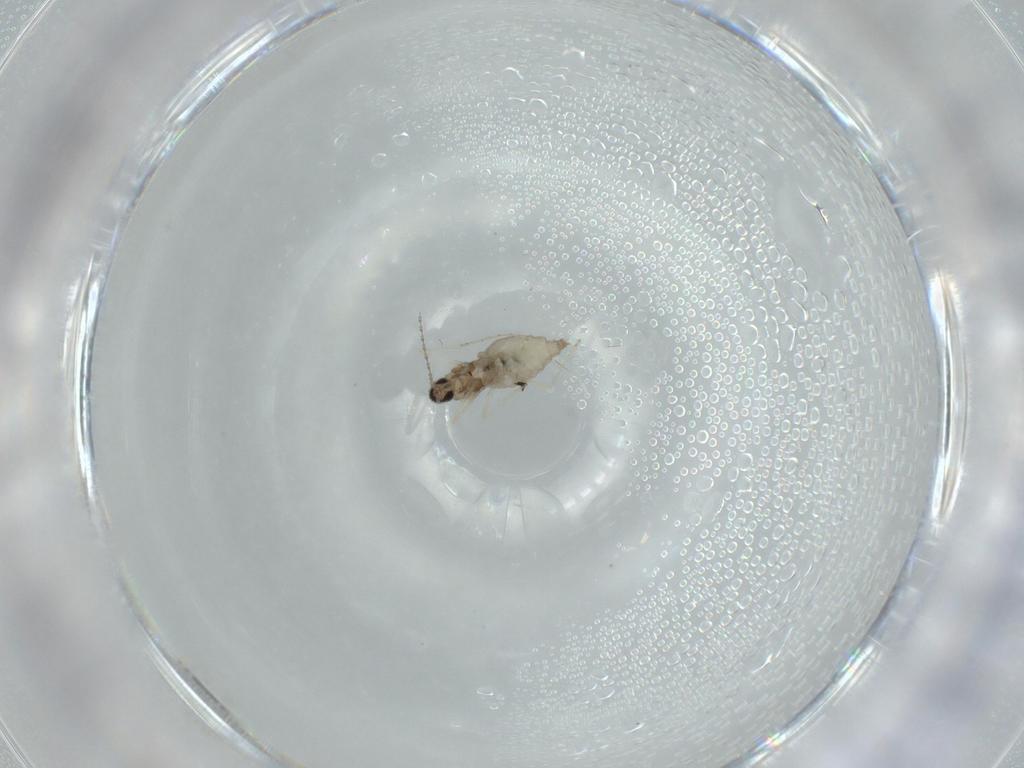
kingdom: Animalia
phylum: Arthropoda
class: Insecta
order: Diptera
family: Cecidomyiidae
